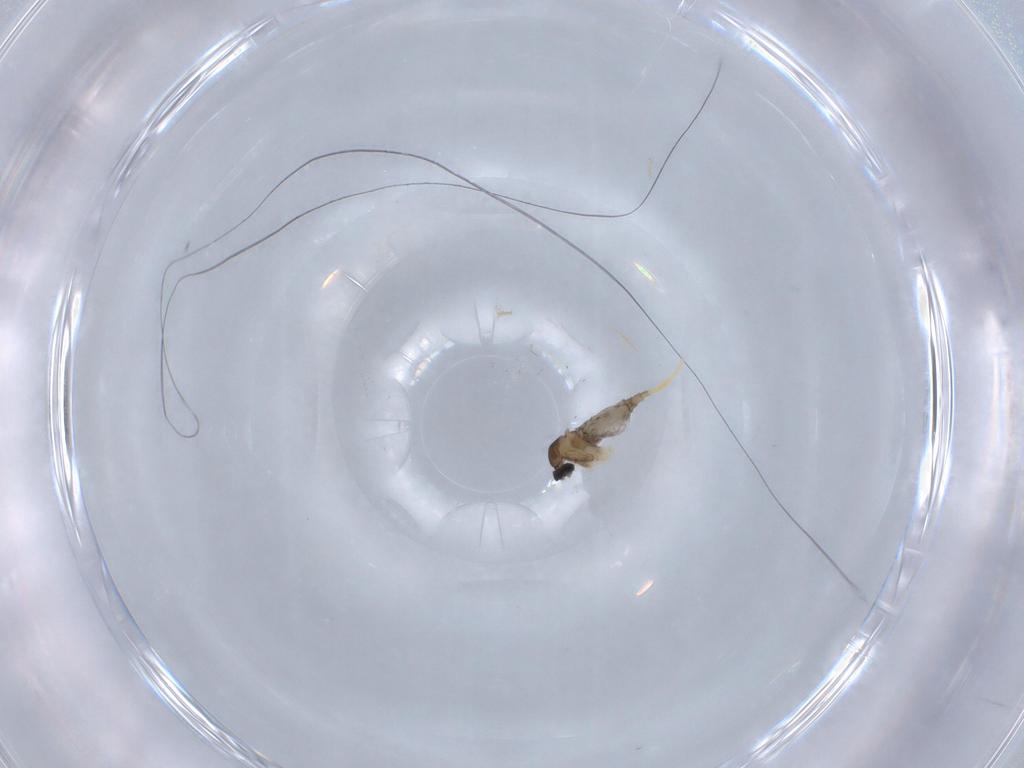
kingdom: Animalia
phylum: Arthropoda
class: Insecta
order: Diptera
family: Cecidomyiidae
